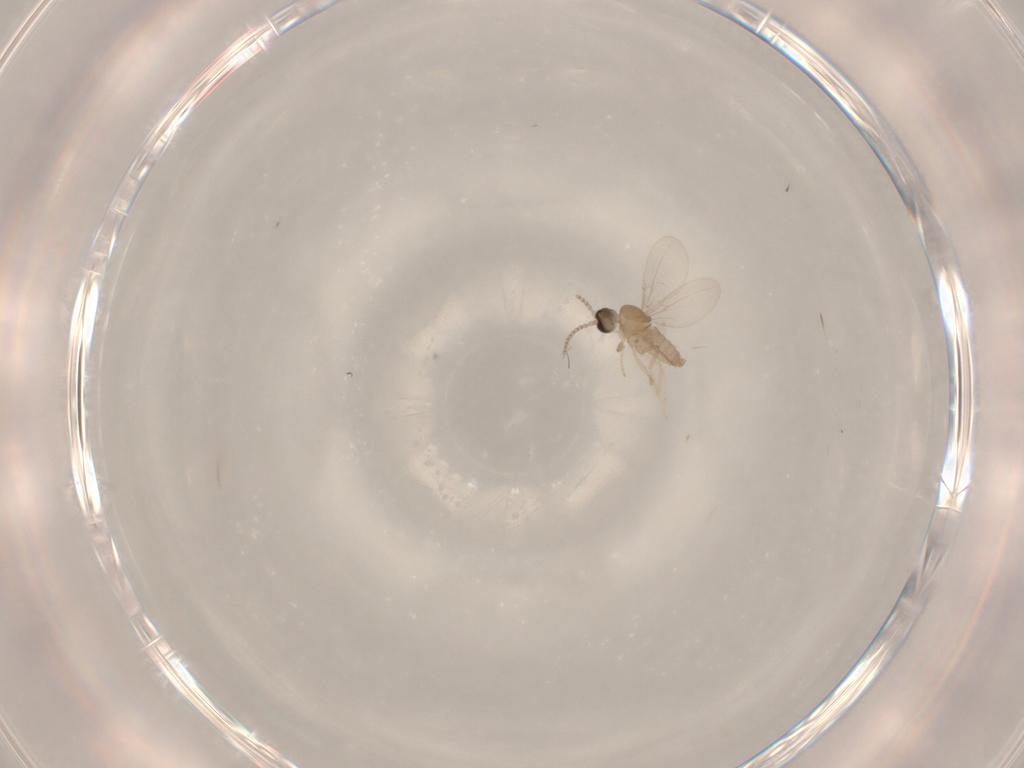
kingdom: Animalia
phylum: Arthropoda
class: Insecta
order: Diptera
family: Cecidomyiidae
